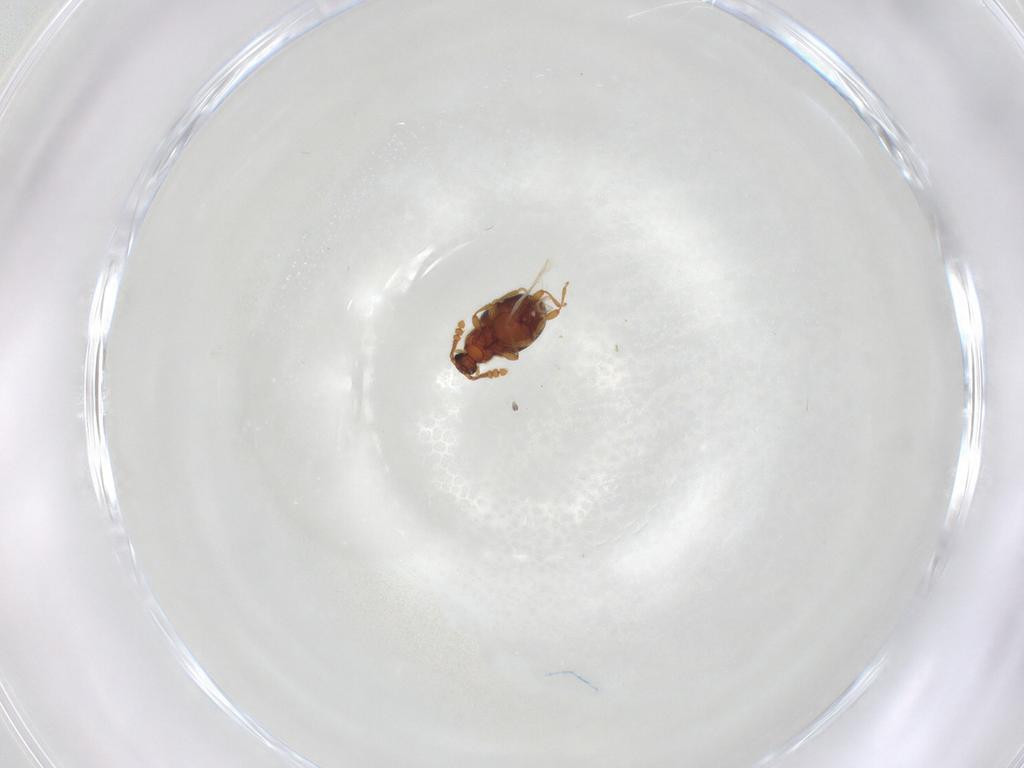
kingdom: Animalia
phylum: Arthropoda
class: Insecta
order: Coleoptera
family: Staphylinidae
